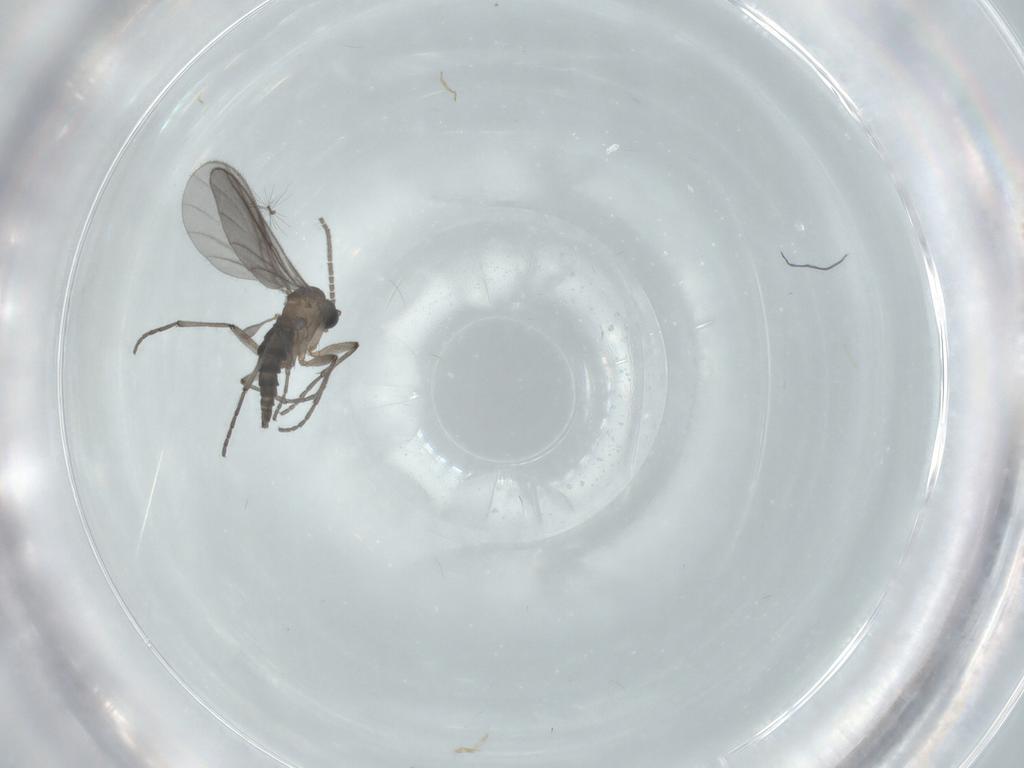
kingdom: Animalia
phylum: Arthropoda
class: Insecta
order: Diptera
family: Sciaridae
